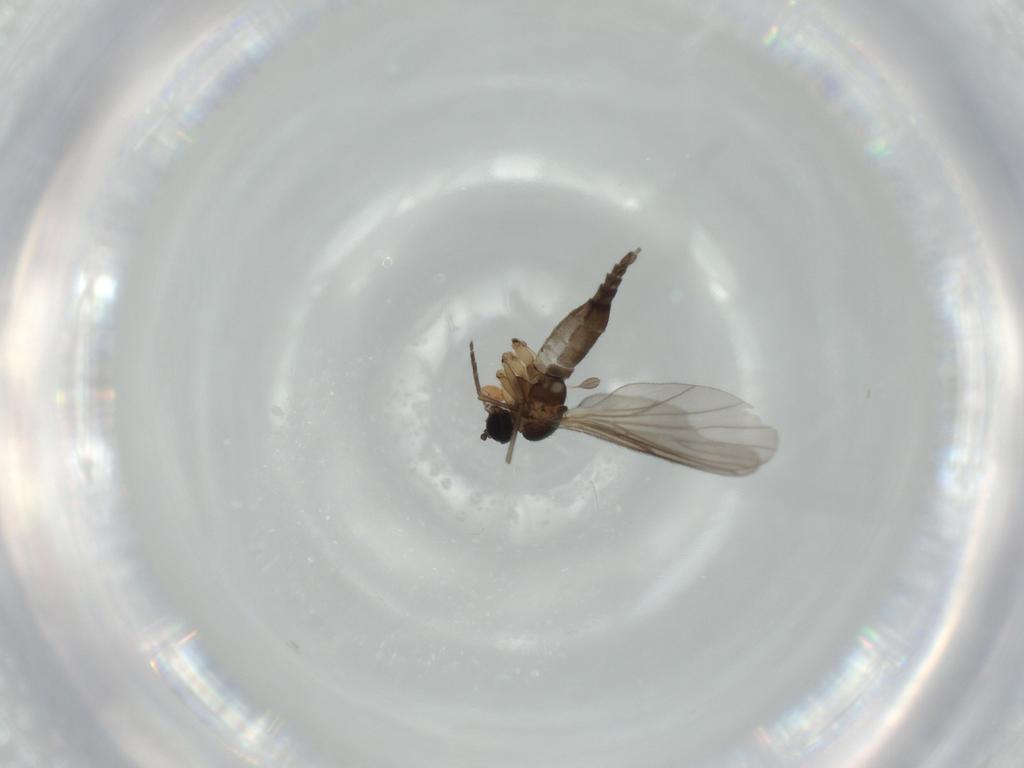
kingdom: Animalia
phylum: Arthropoda
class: Insecta
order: Diptera
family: Sciaridae
